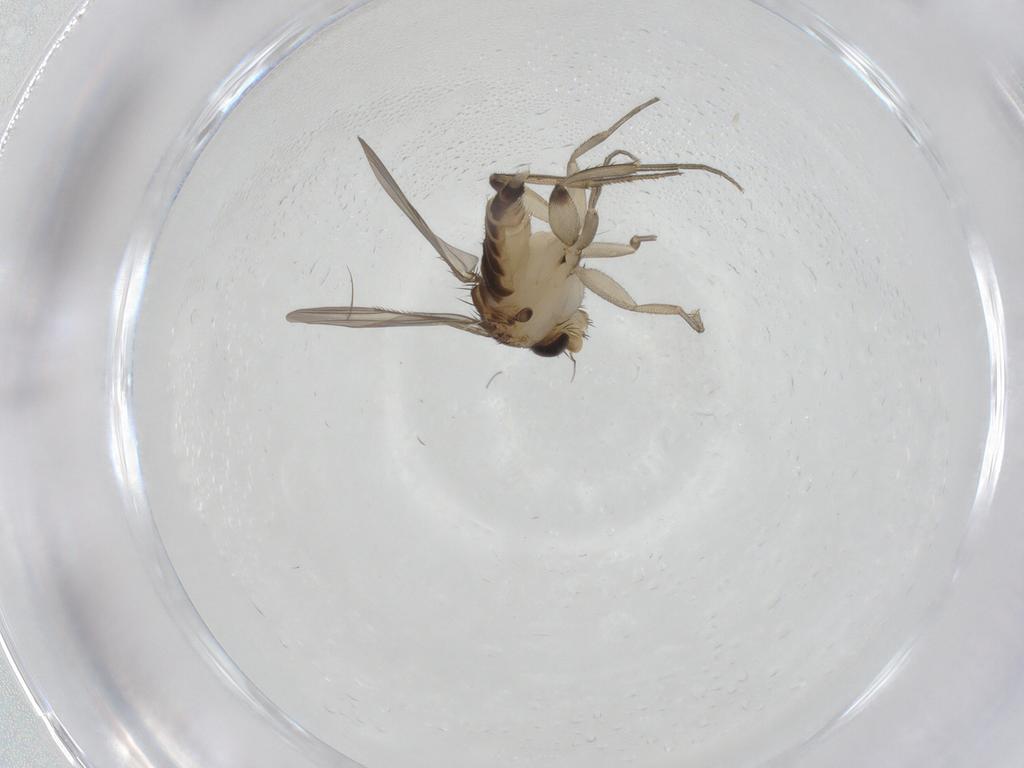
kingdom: Animalia
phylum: Arthropoda
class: Insecta
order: Diptera
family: Phoridae
